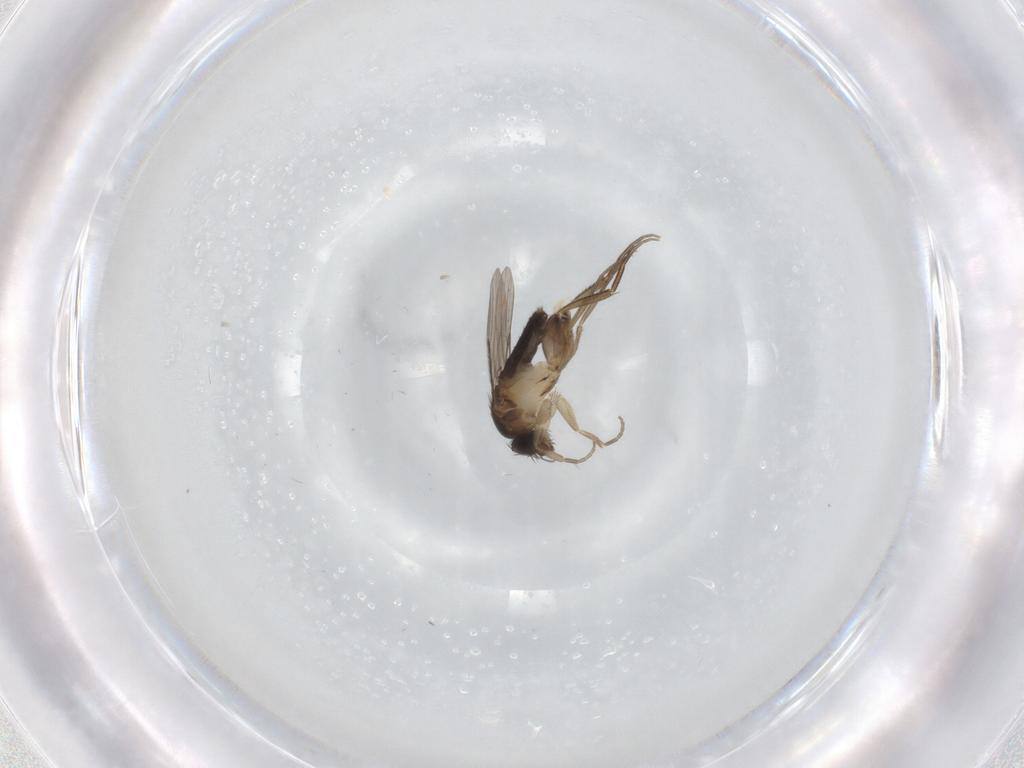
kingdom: Animalia
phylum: Arthropoda
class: Insecta
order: Diptera
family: Phoridae
